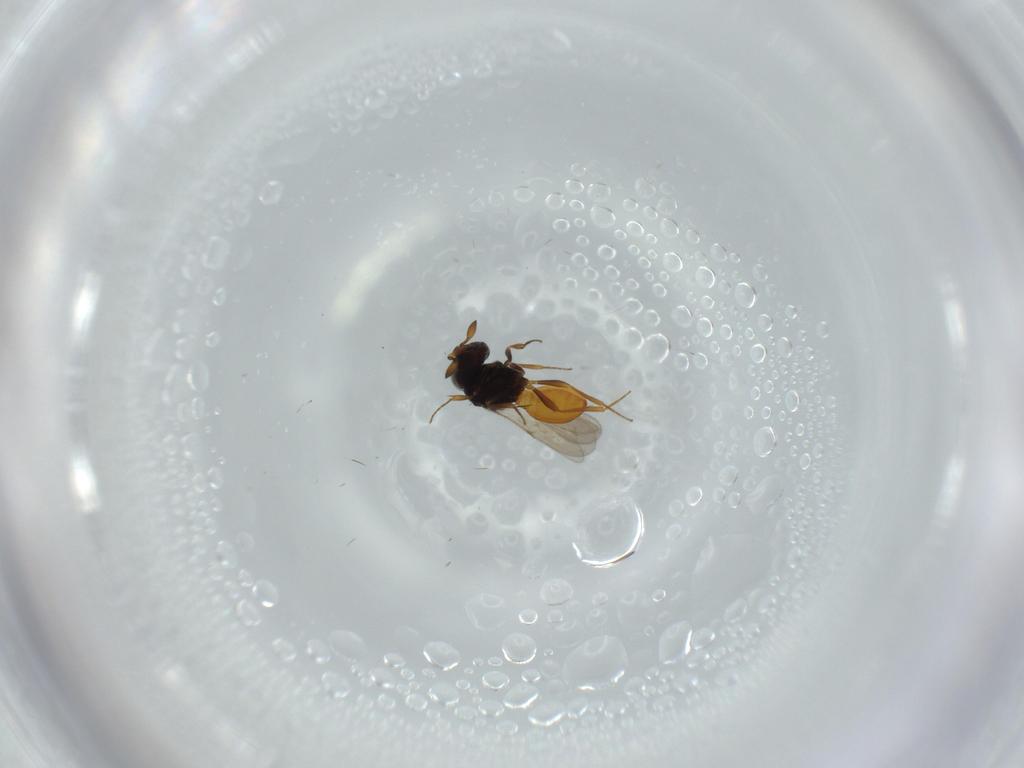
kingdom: Animalia
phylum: Arthropoda
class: Insecta
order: Hymenoptera
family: Scelionidae
